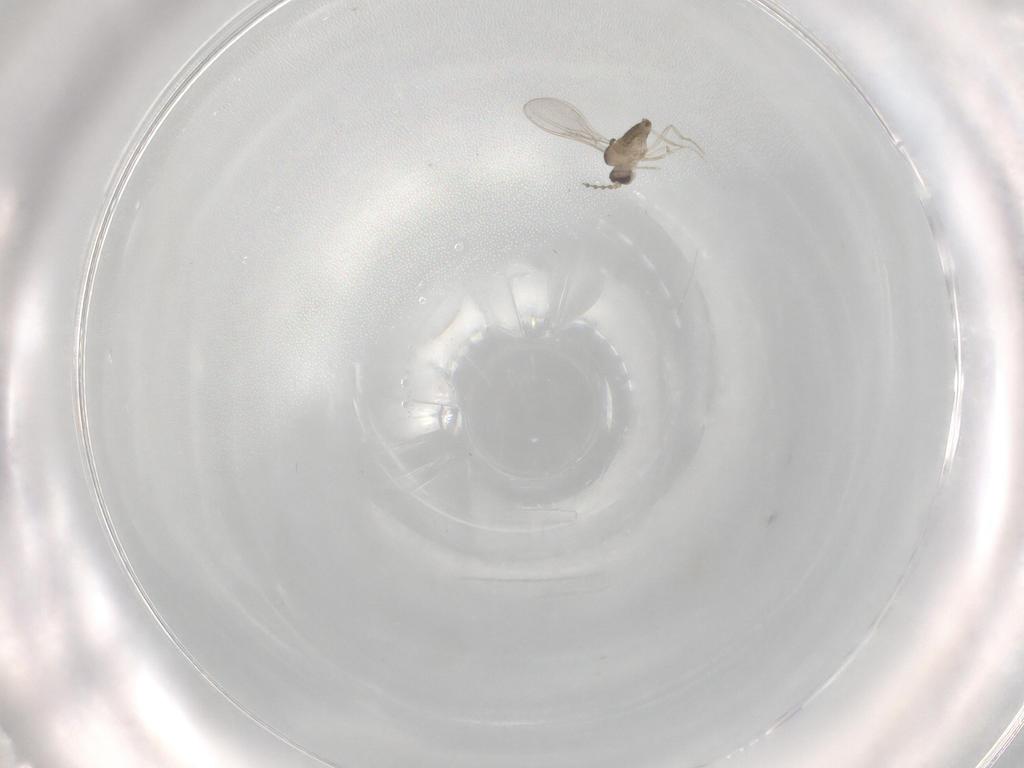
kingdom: Animalia
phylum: Arthropoda
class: Insecta
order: Diptera
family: Cecidomyiidae
